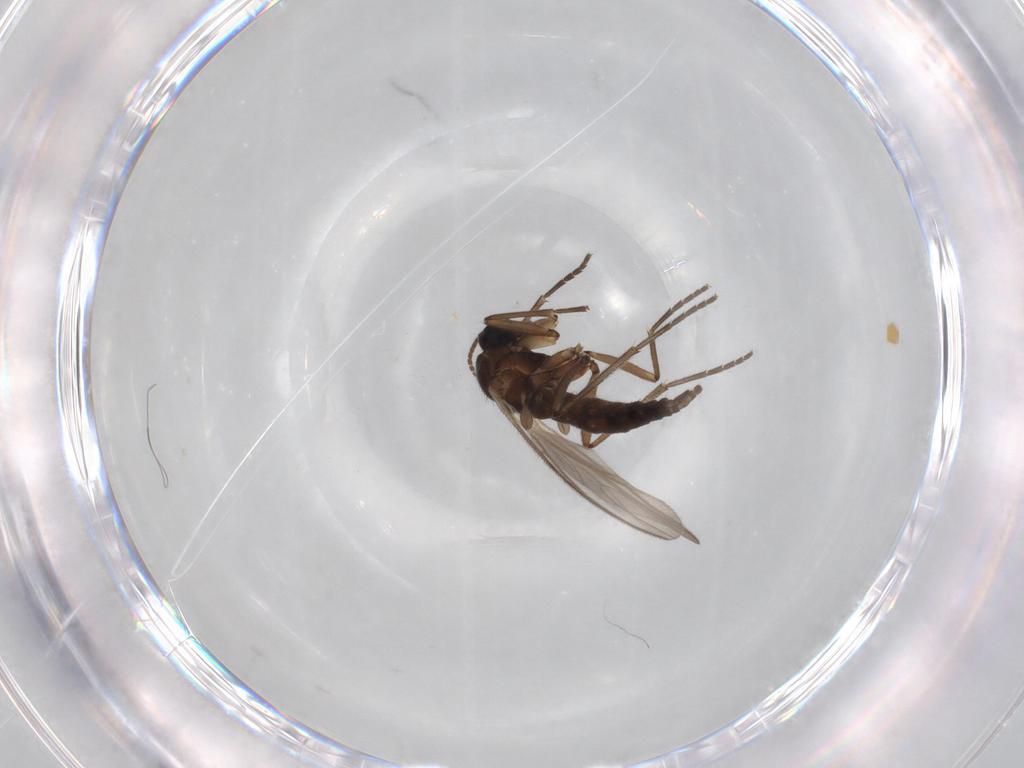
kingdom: Animalia
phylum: Arthropoda
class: Insecta
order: Diptera
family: Sciaridae
